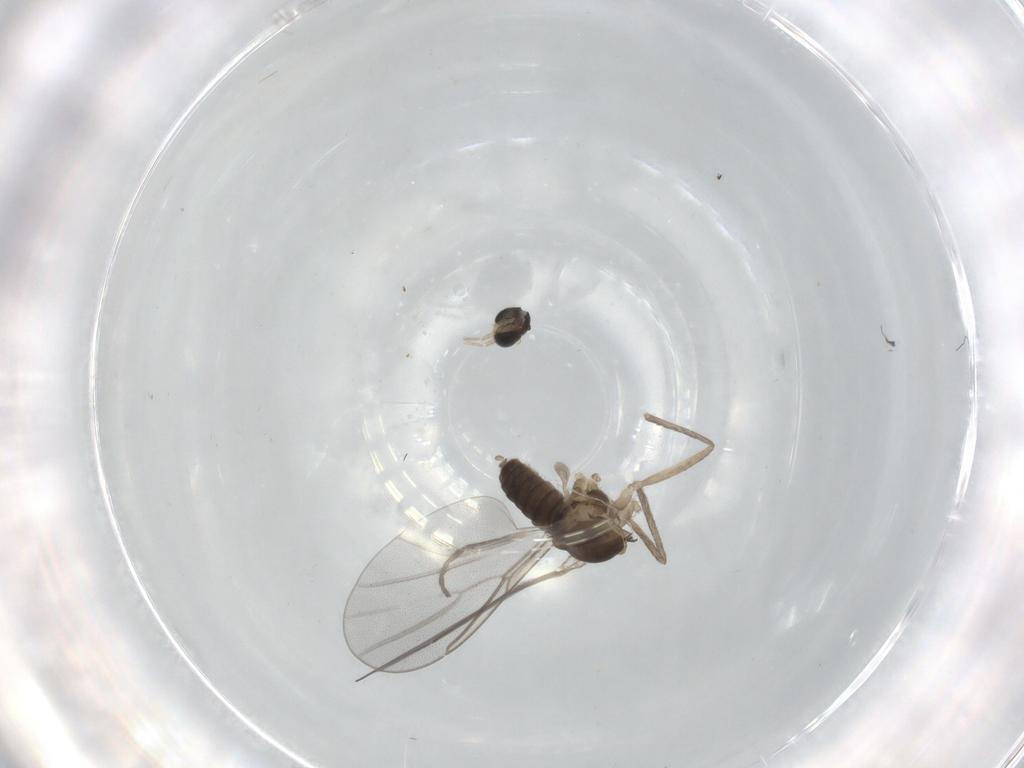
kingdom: Animalia
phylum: Arthropoda
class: Insecta
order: Diptera
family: Cecidomyiidae
